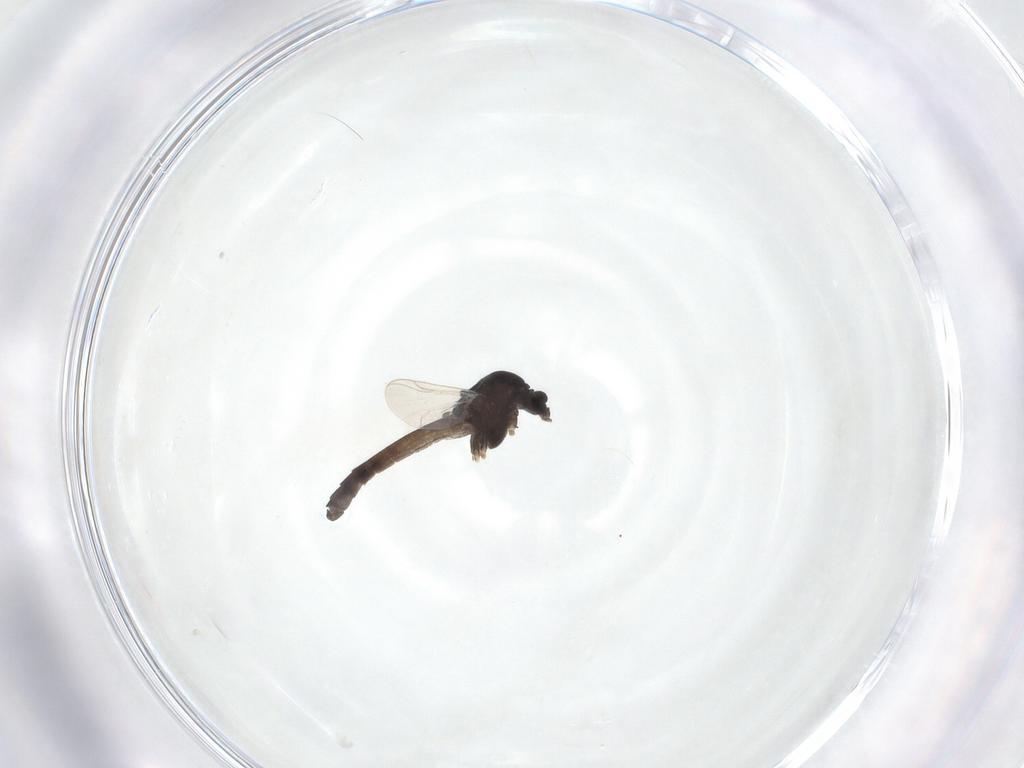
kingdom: Animalia
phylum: Arthropoda
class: Insecta
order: Diptera
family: Chironomidae
